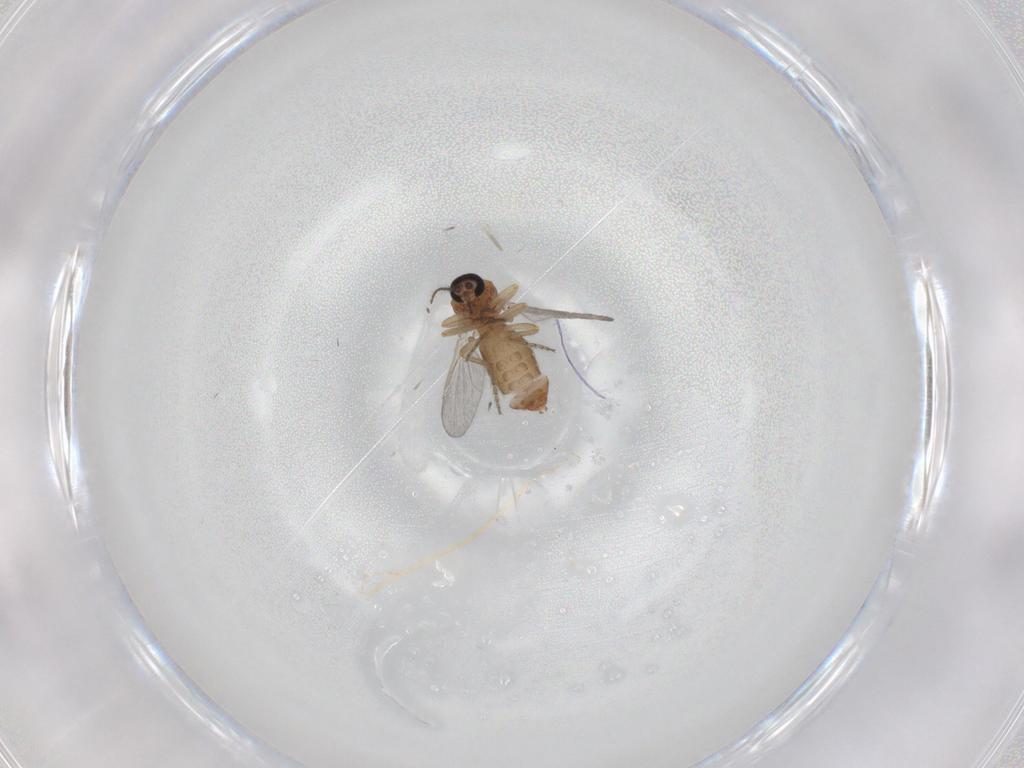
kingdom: Animalia
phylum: Arthropoda
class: Insecta
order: Diptera
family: Ceratopogonidae
